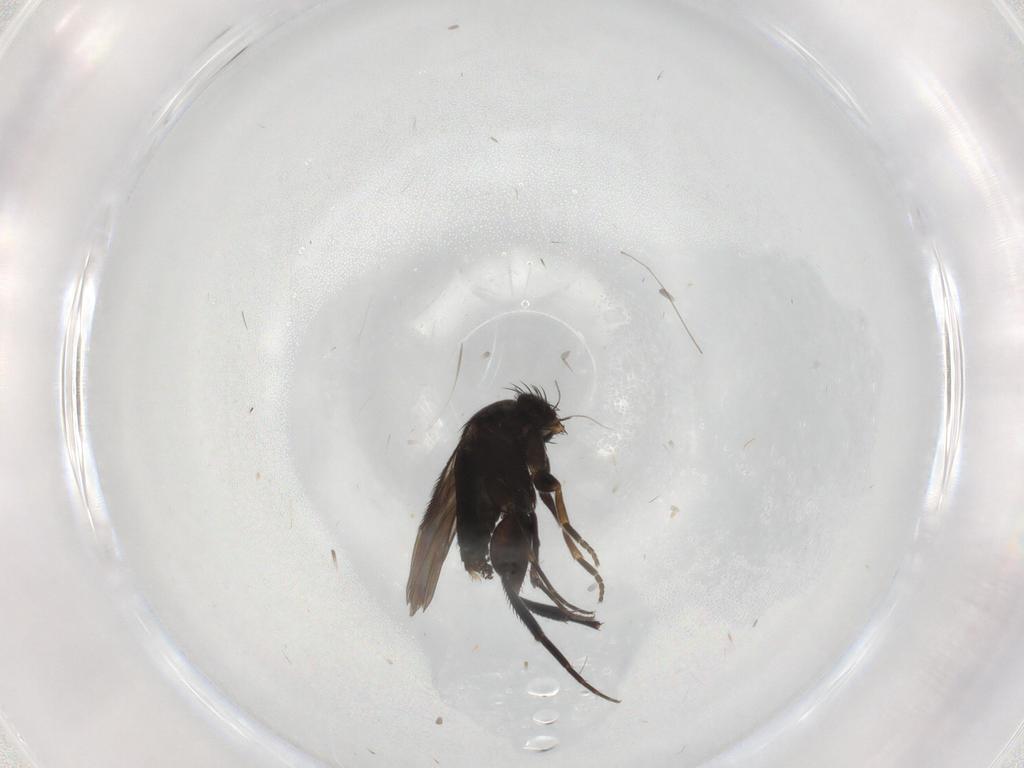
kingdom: Animalia
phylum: Arthropoda
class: Insecta
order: Diptera
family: Phoridae
